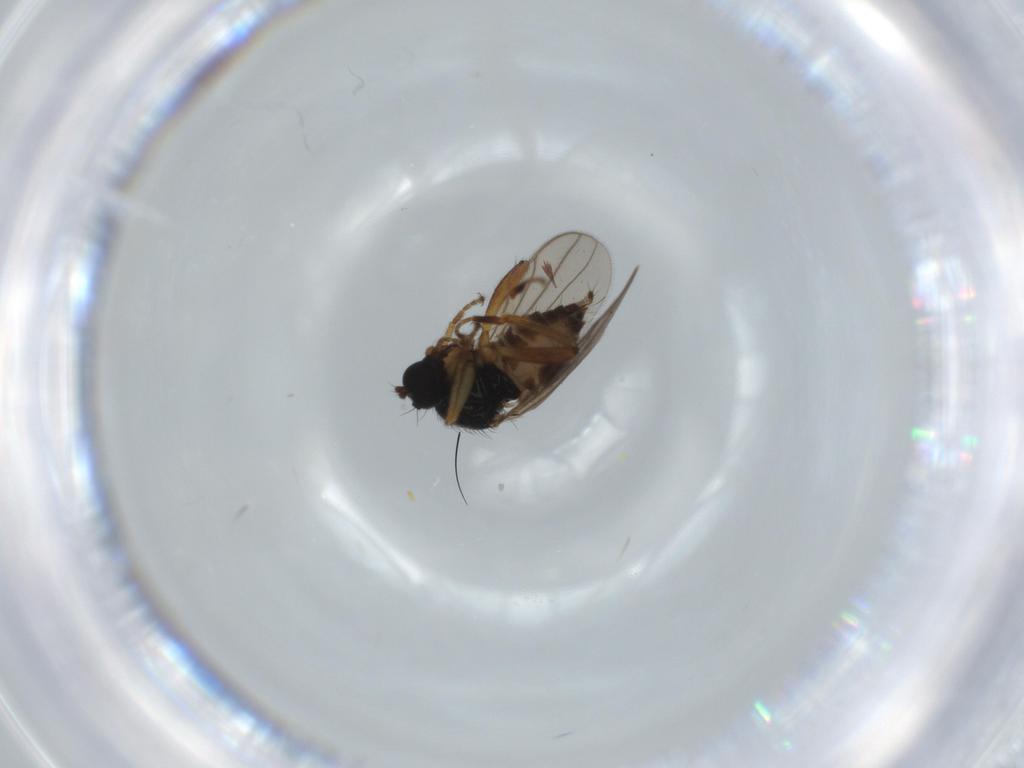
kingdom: Animalia
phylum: Arthropoda
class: Insecta
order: Diptera
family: Hybotidae
